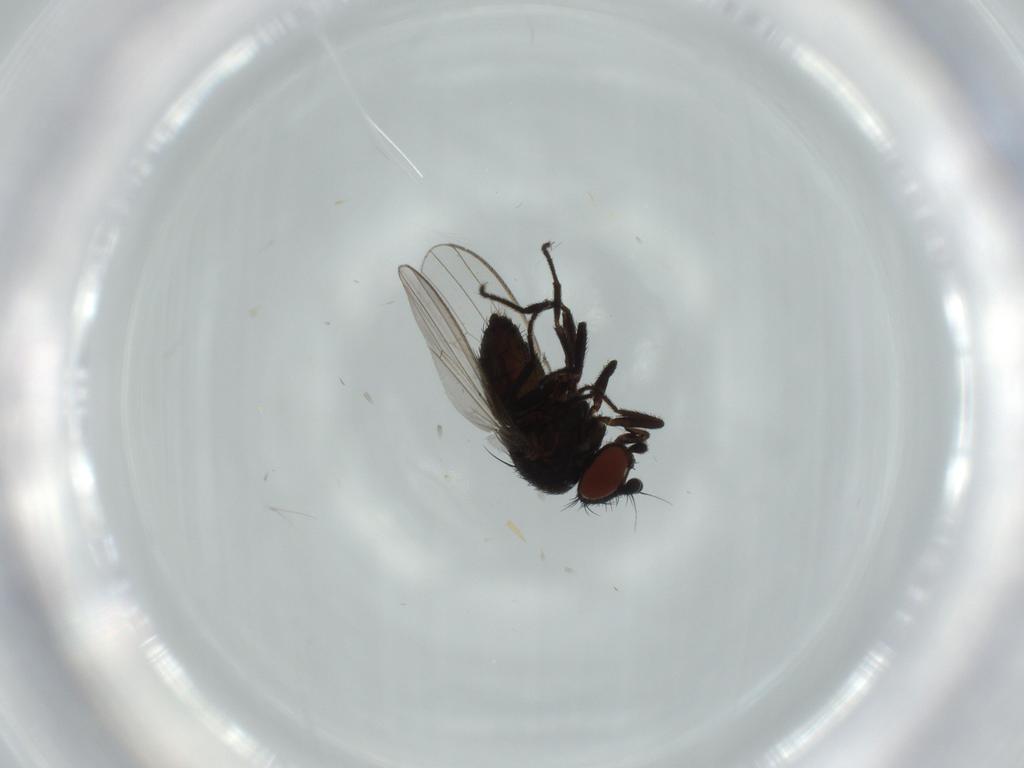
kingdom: Animalia
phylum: Arthropoda
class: Insecta
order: Diptera
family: Milichiidae
